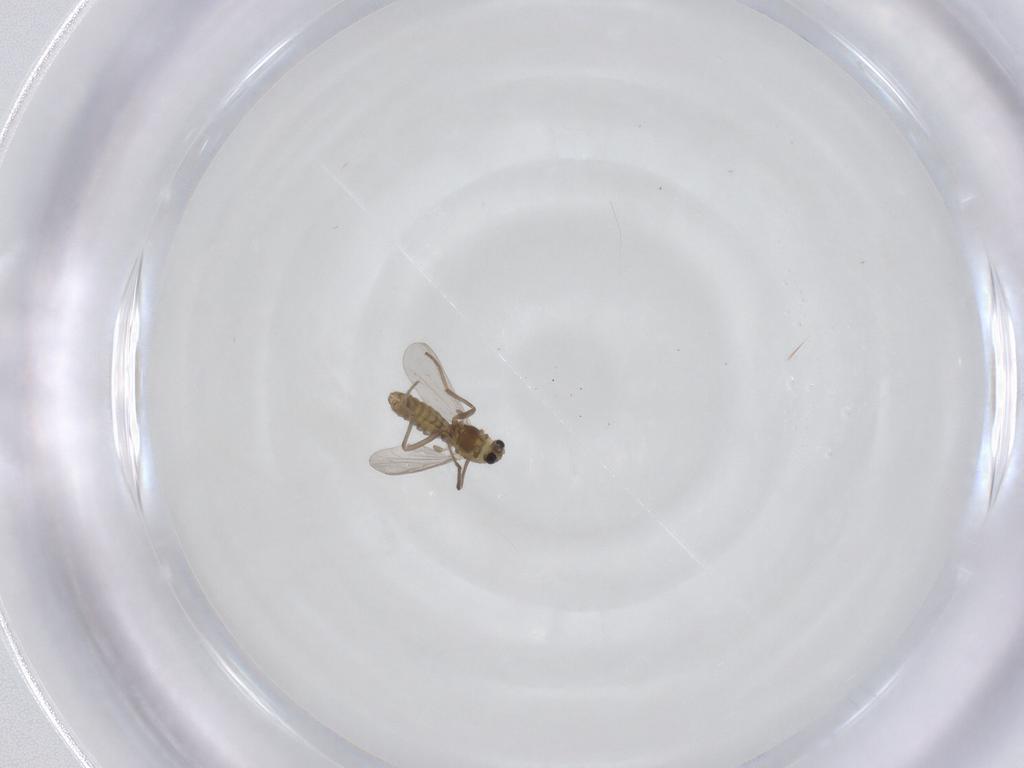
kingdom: Animalia
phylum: Arthropoda
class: Insecta
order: Diptera
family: Chironomidae
